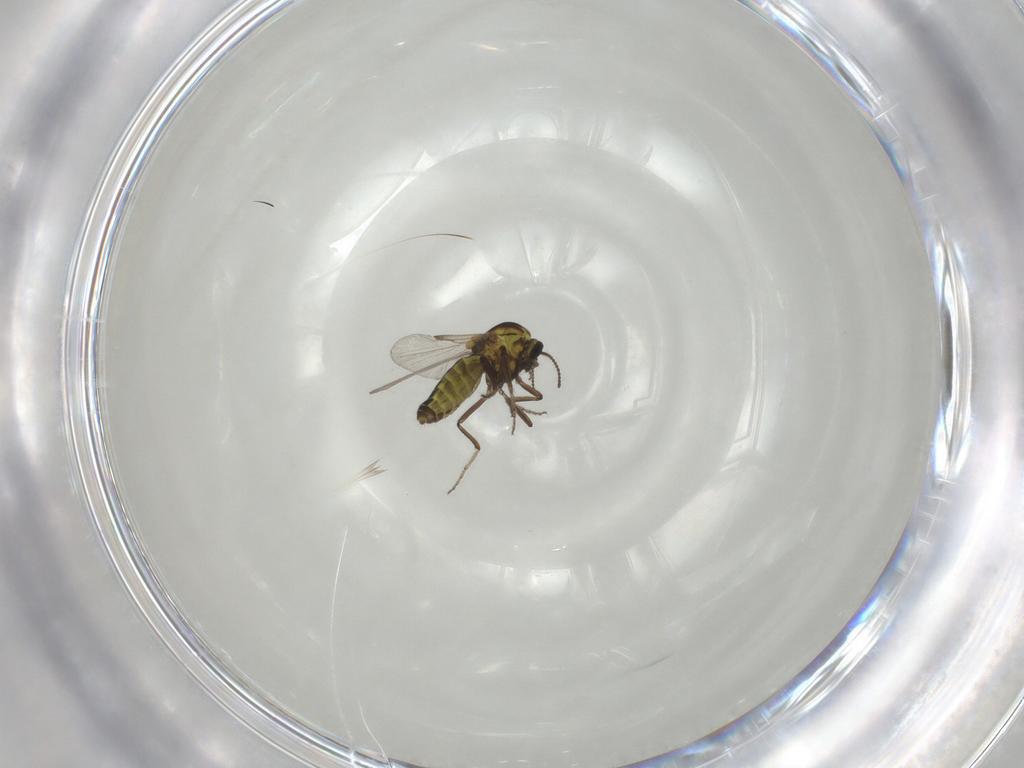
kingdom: Animalia
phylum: Arthropoda
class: Insecta
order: Diptera
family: Ceratopogonidae
